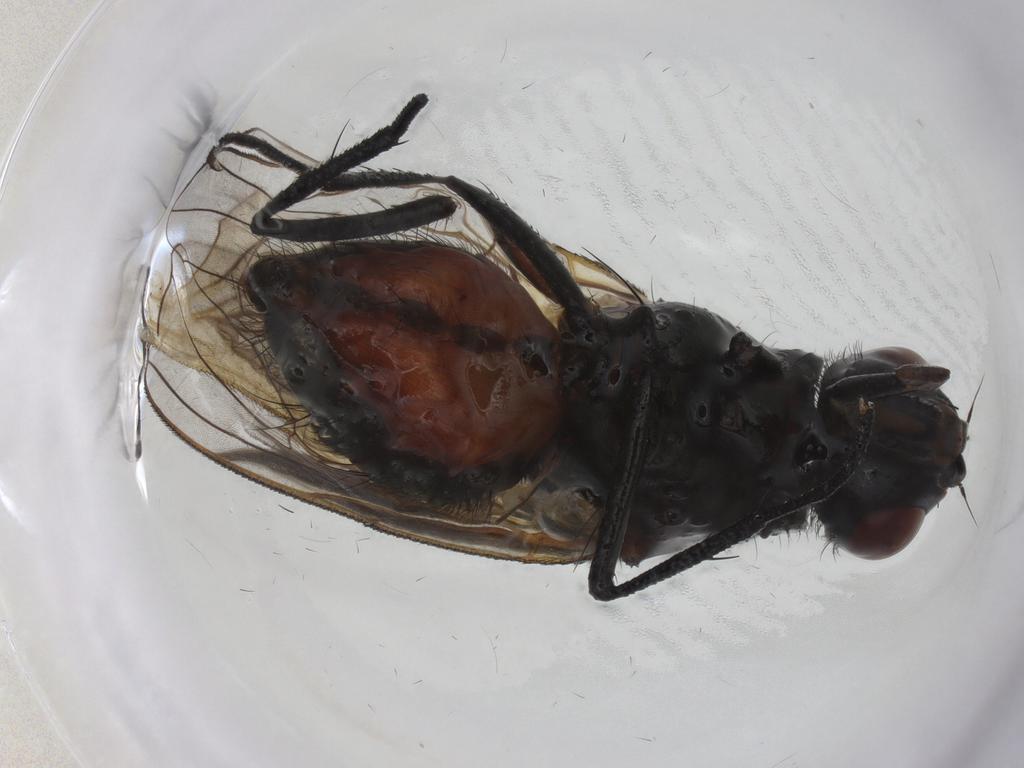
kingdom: Animalia
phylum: Arthropoda
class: Insecta
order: Diptera
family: Anthomyiidae
